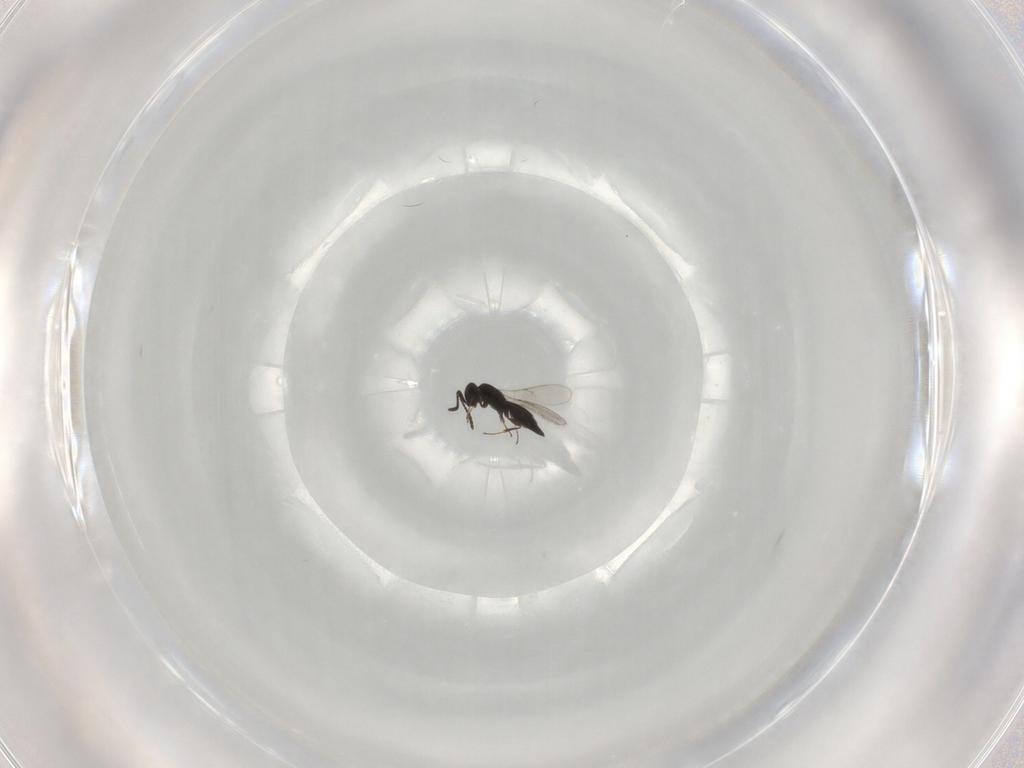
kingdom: Animalia
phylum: Arthropoda
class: Insecta
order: Hymenoptera
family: Scelionidae
